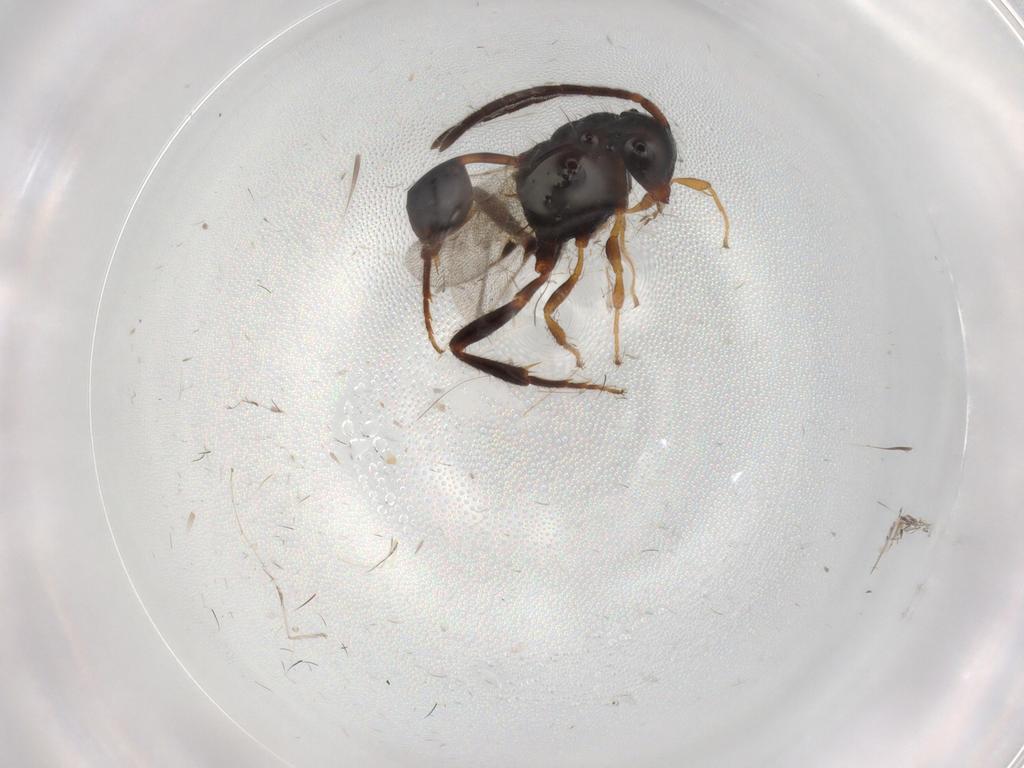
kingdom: Animalia
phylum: Arthropoda
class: Insecta
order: Hymenoptera
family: Evaniidae
